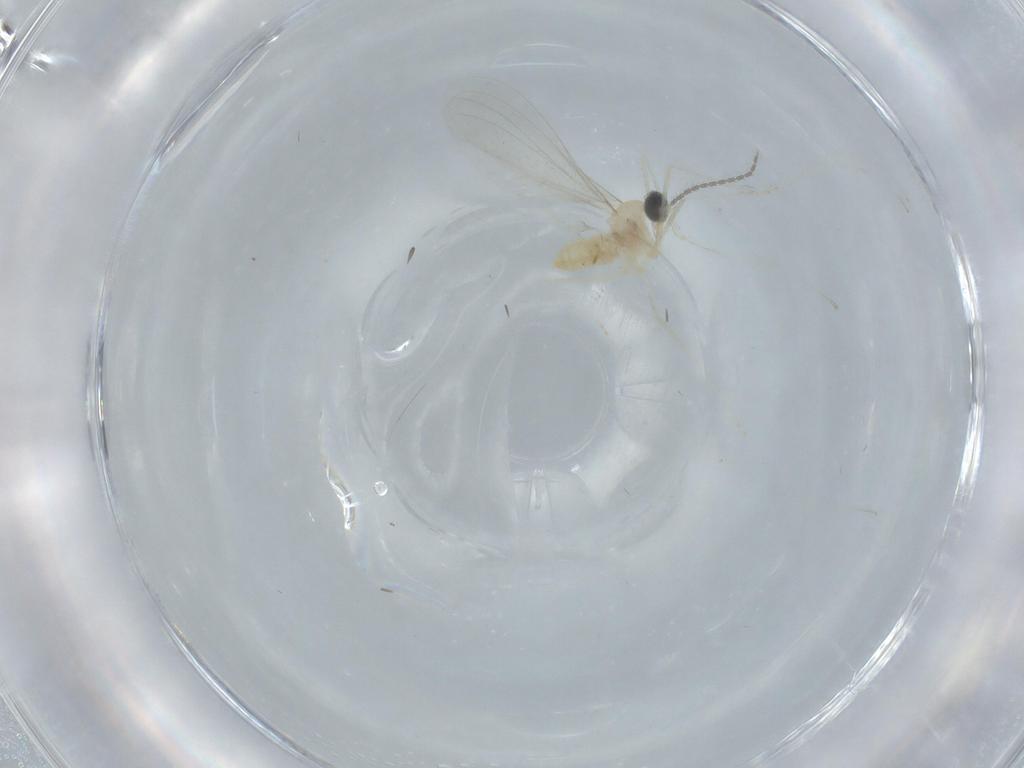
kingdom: Animalia
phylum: Arthropoda
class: Insecta
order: Diptera
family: Cecidomyiidae
